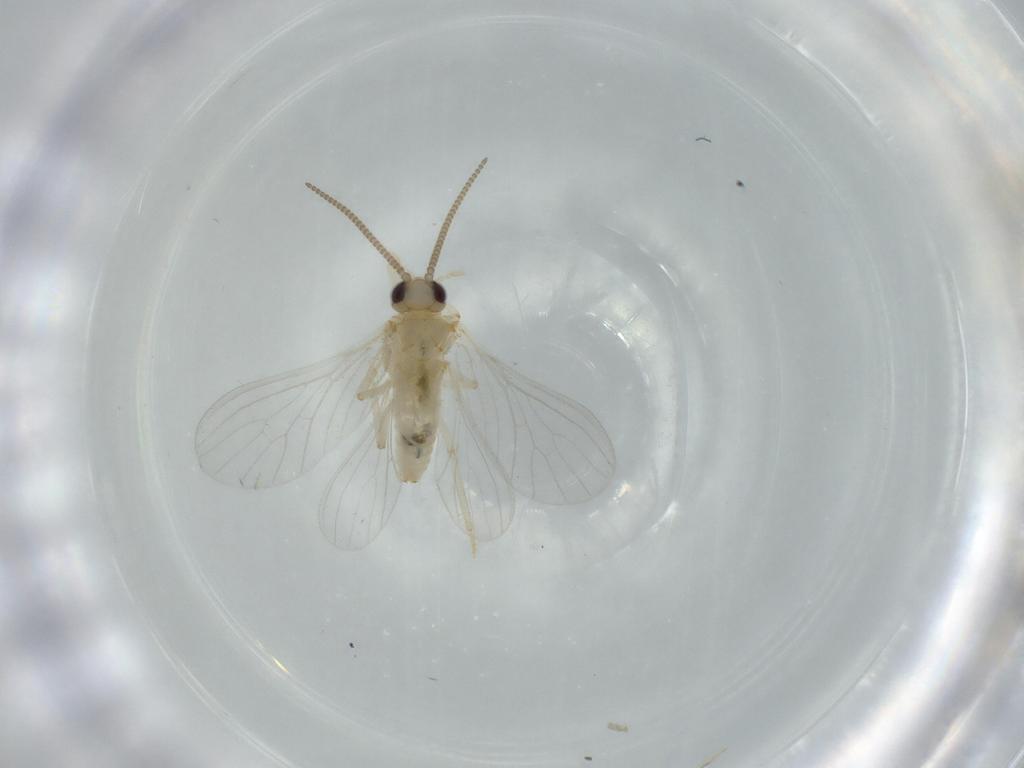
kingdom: Animalia
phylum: Arthropoda
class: Insecta
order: Neuroptera
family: Coniopterygidae
